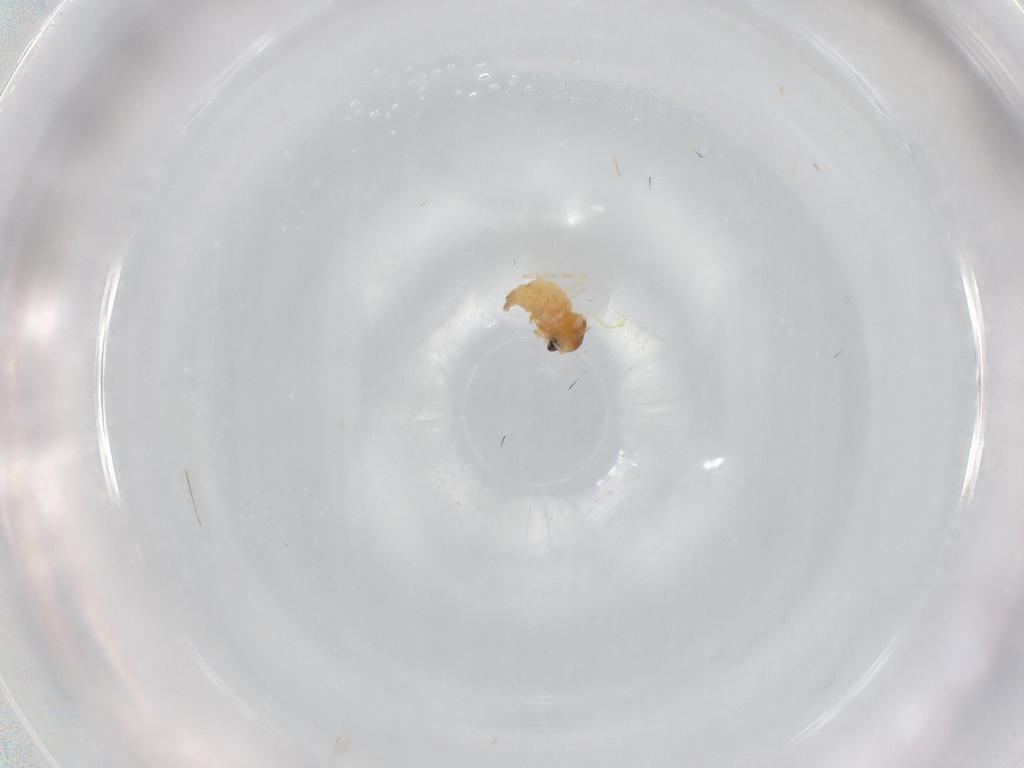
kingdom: Animalia
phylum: Arthropoda
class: Insecta
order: Diptera
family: Cecidomyiidae
